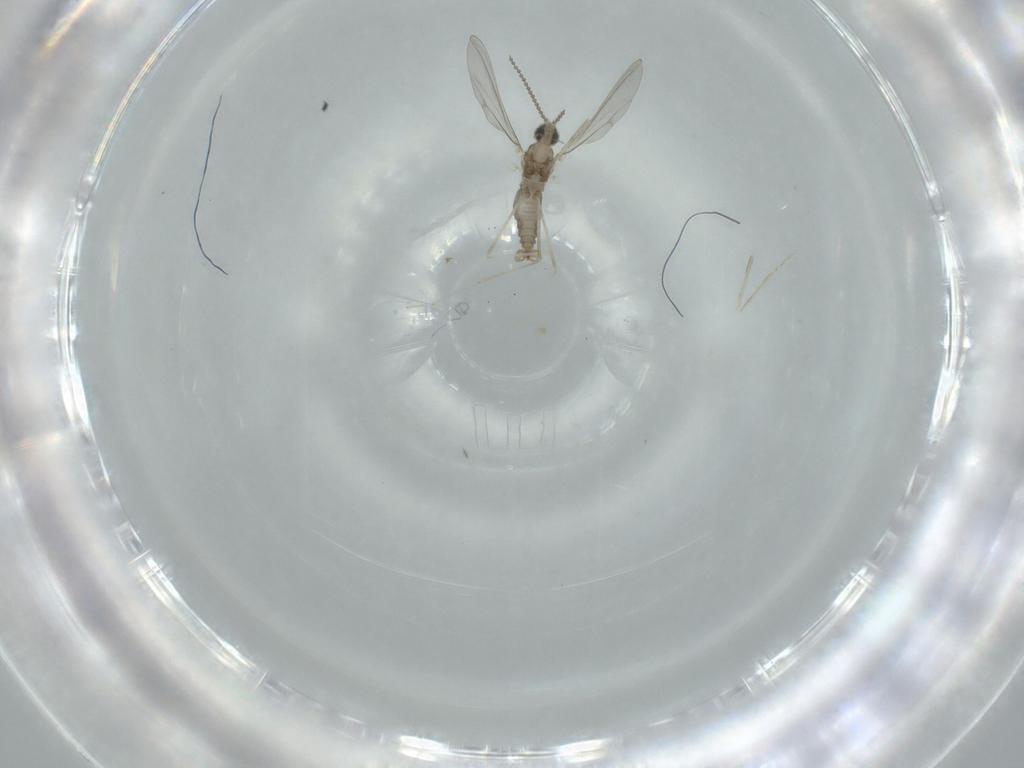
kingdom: Animalia
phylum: Arthropoda
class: Insecta
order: Diptera
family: Cecidomyiidae
